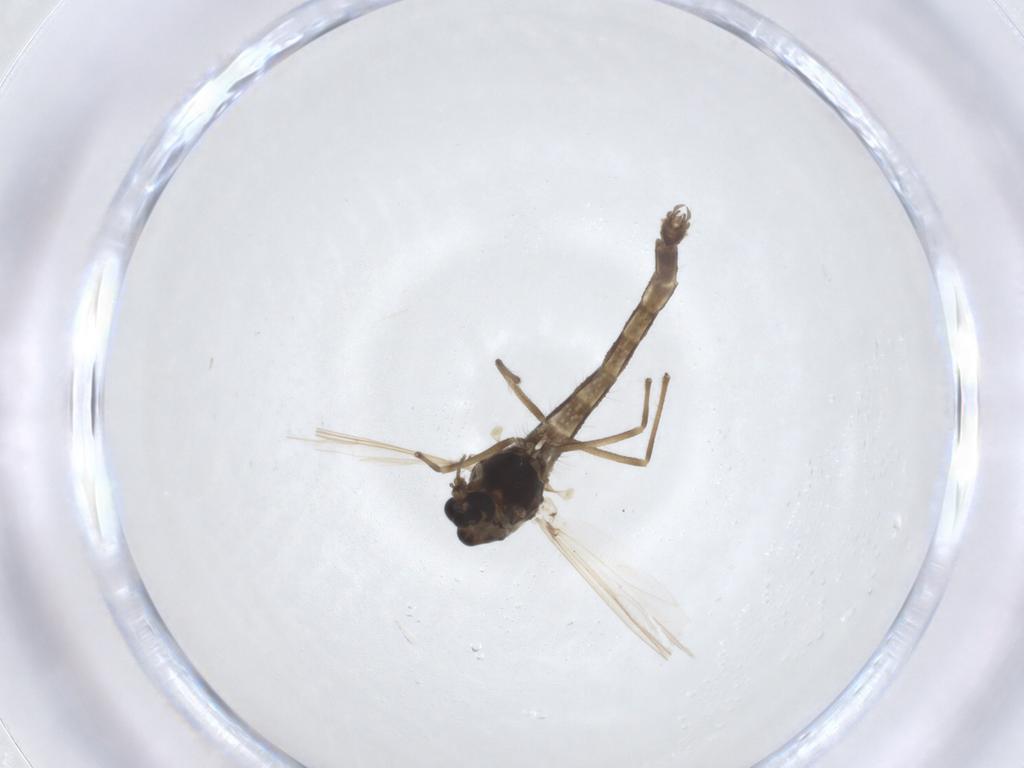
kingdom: Animalia
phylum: Arthropoda
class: Insecta
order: Diptera
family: Chironomidae
